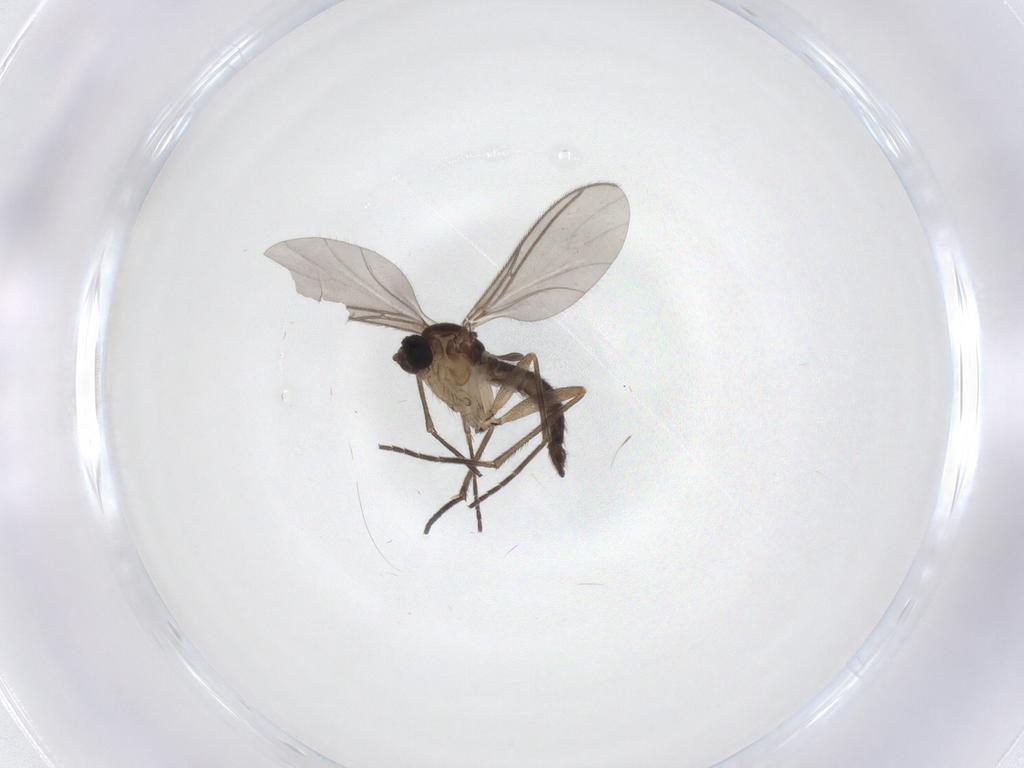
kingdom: Animalia
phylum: Arthropoda
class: Insecta
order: Diptera
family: Sciaridae
